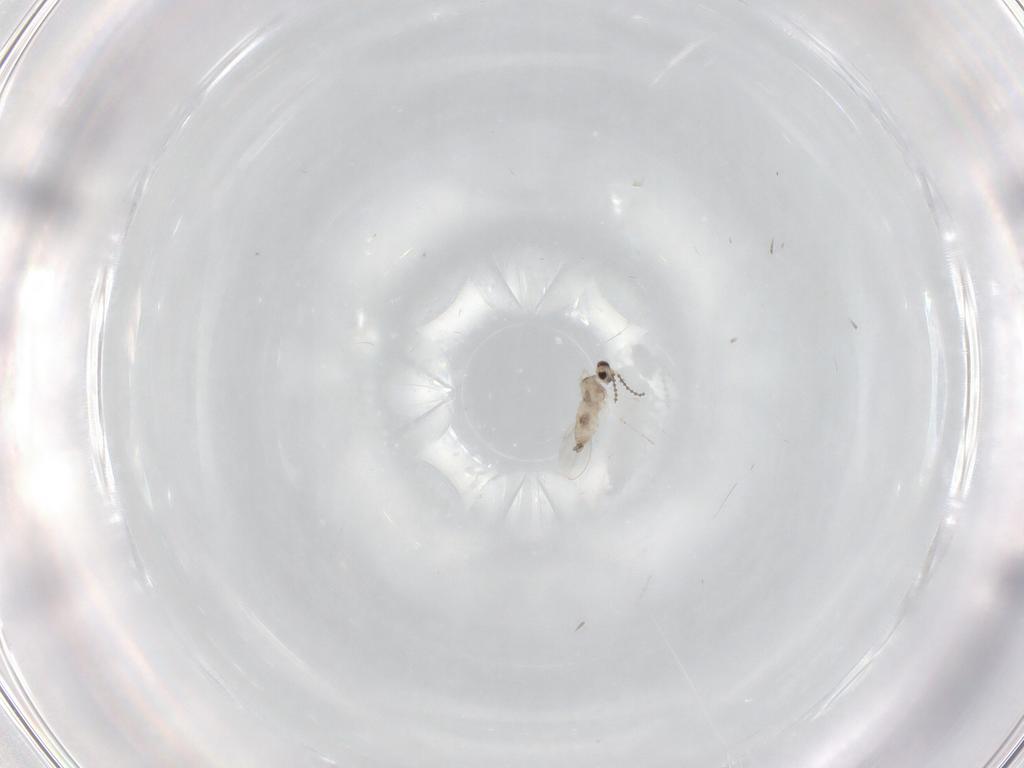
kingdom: Animalia
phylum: Arthropoda
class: Insecta
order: Diptera
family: Cecidomyiidae
